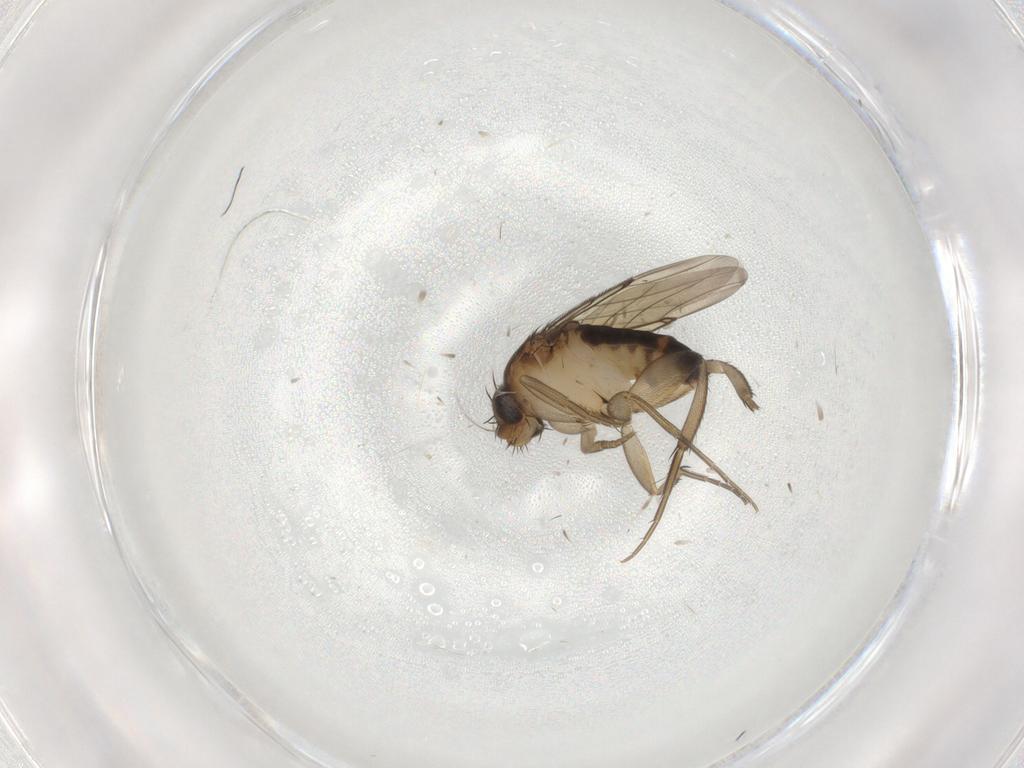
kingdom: Animalia
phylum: Arthropoda
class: Insecta
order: Diptera
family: Phoridae
